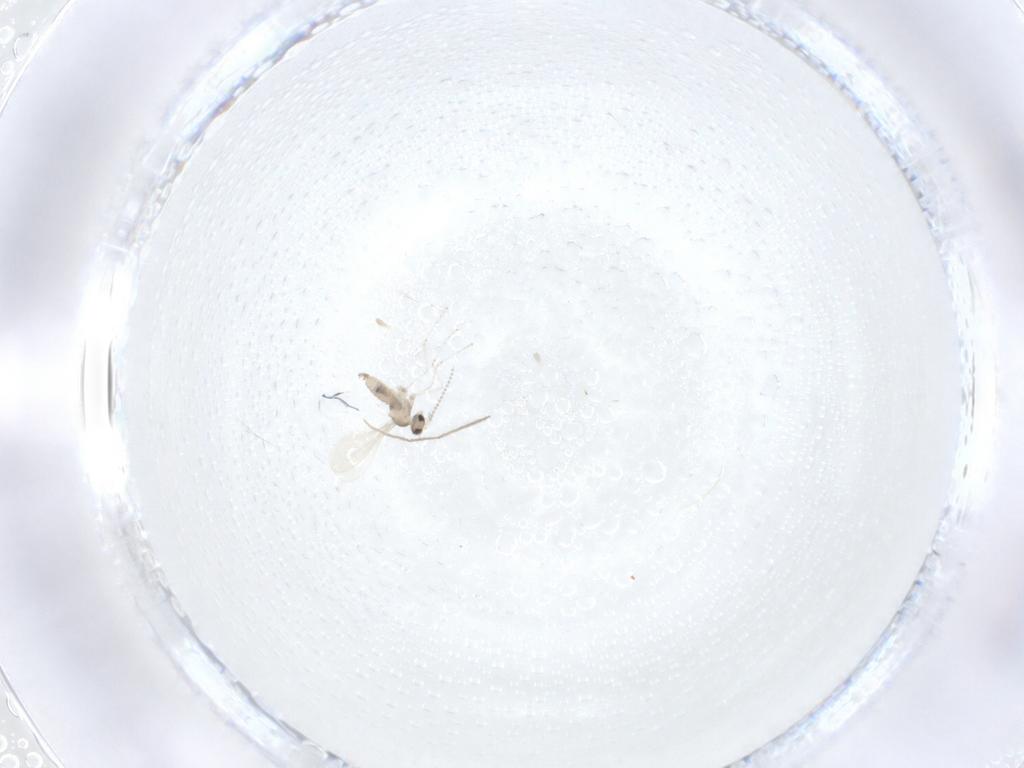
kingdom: Animalia
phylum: Arthropoda
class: Insecta
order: Diptera
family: Cecidomyiidae
